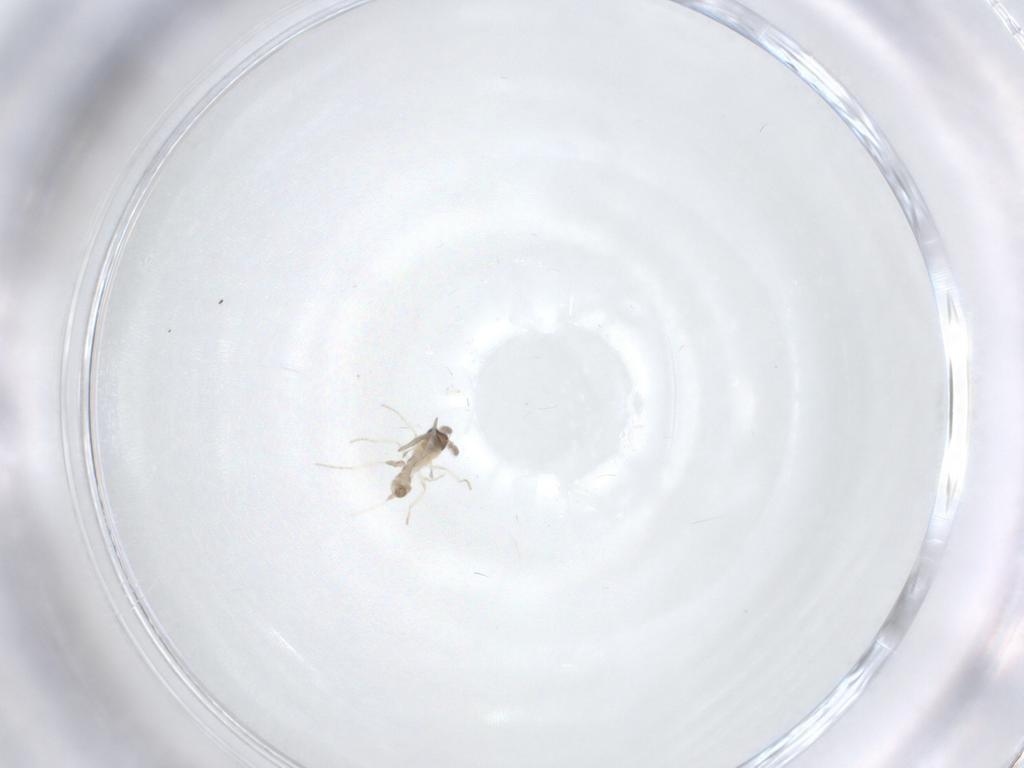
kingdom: Animalia
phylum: Arthropoda
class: Insecta
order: Diptera
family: Cecidomyiidae
